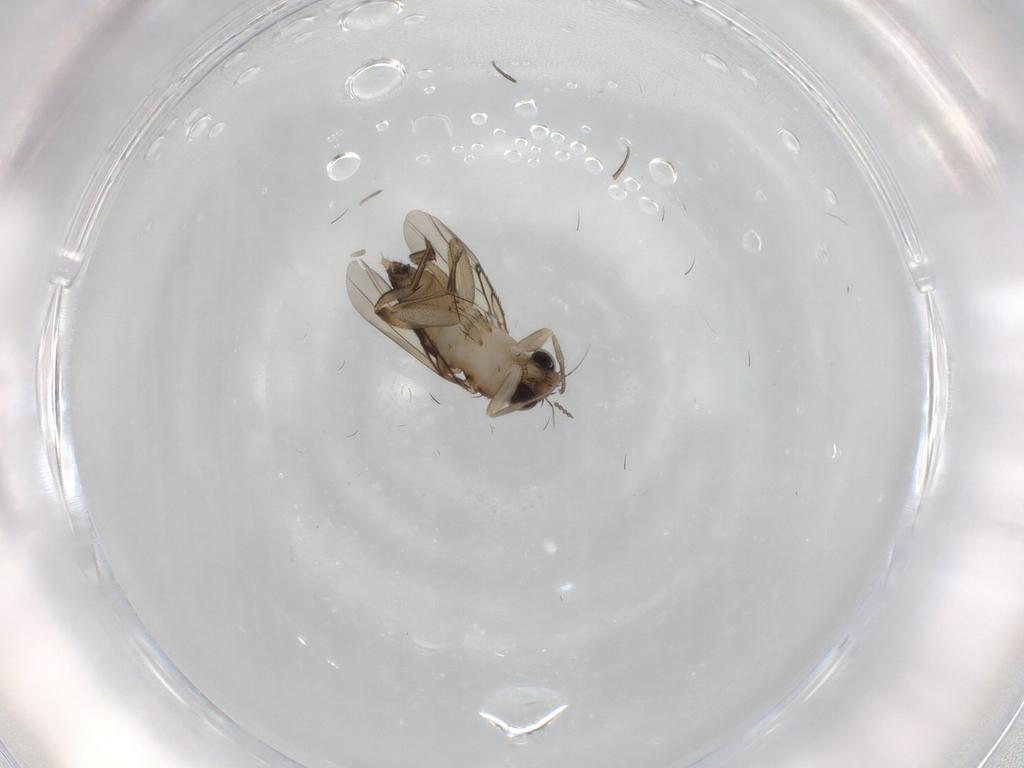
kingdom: Animalia
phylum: Arthropoda
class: Insecta
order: Diptera
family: Phoridae
